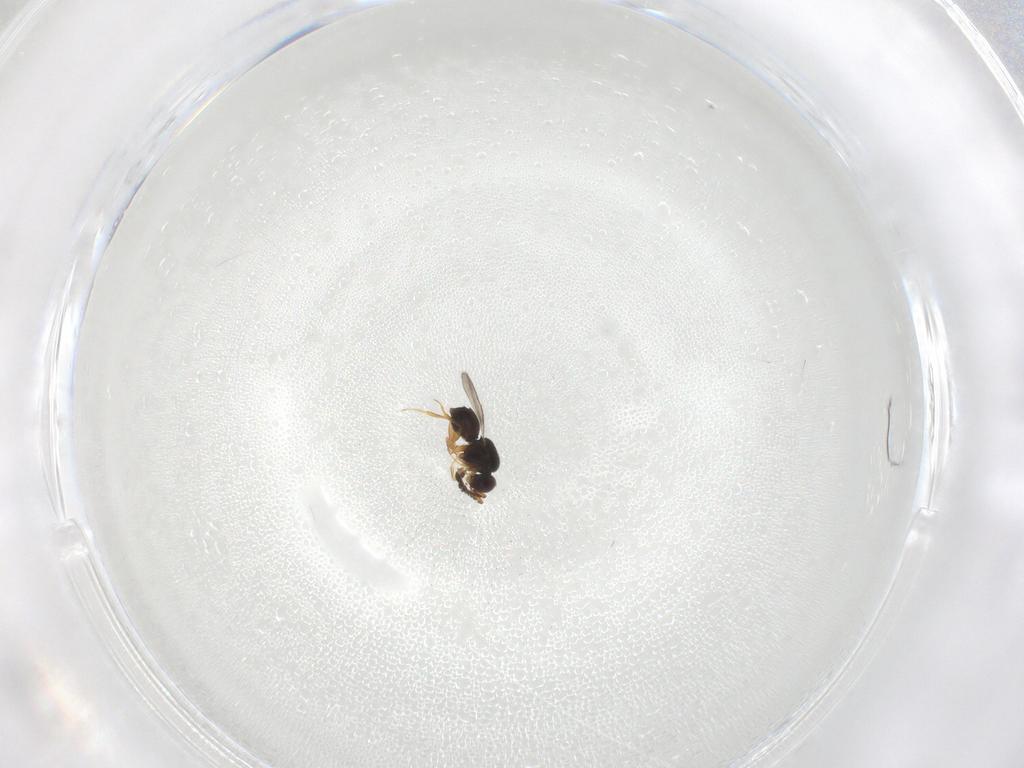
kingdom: Animalia
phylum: Arthropoda
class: Insecta
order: Hymenoptera
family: Ceraphronidae
